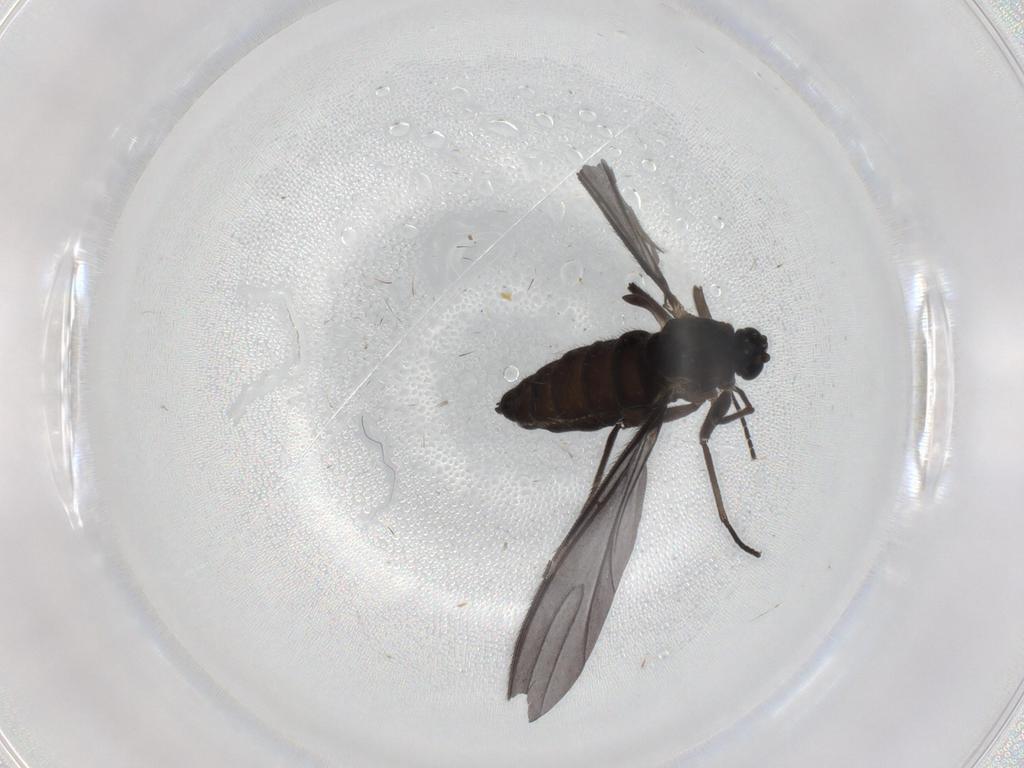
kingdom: Animalia
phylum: Arthropoda
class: Insecta
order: Diptera
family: Sciaridae
